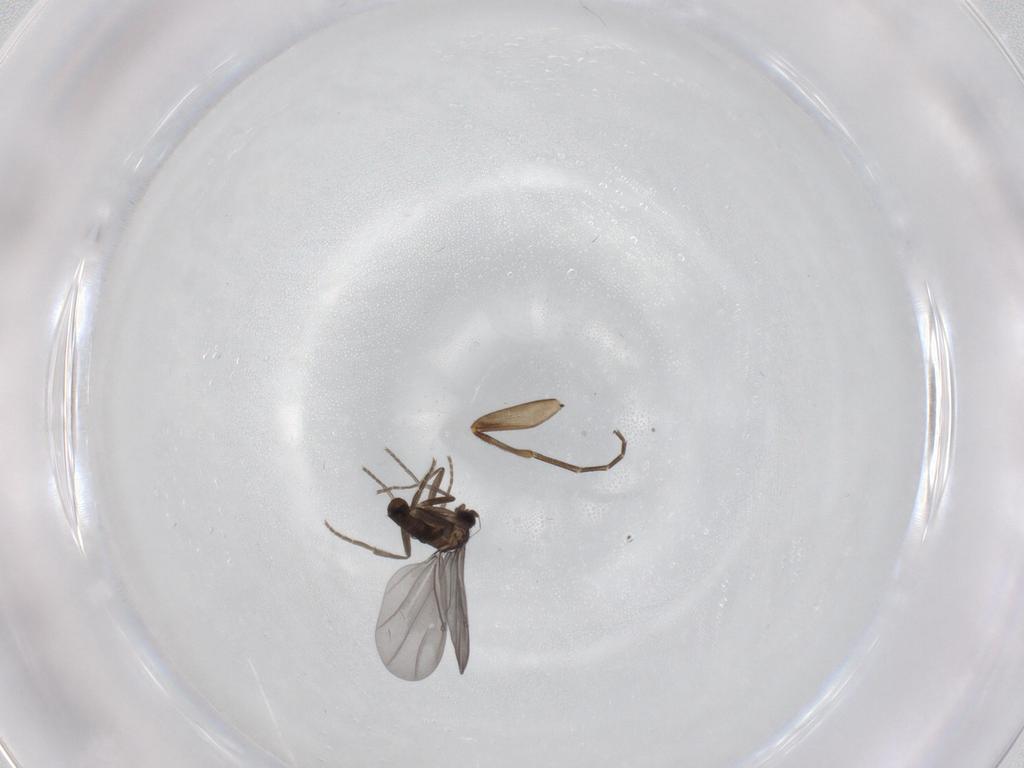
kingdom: Animalia
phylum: Arthropoda
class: Insecta
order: Diptera
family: Phoridae
